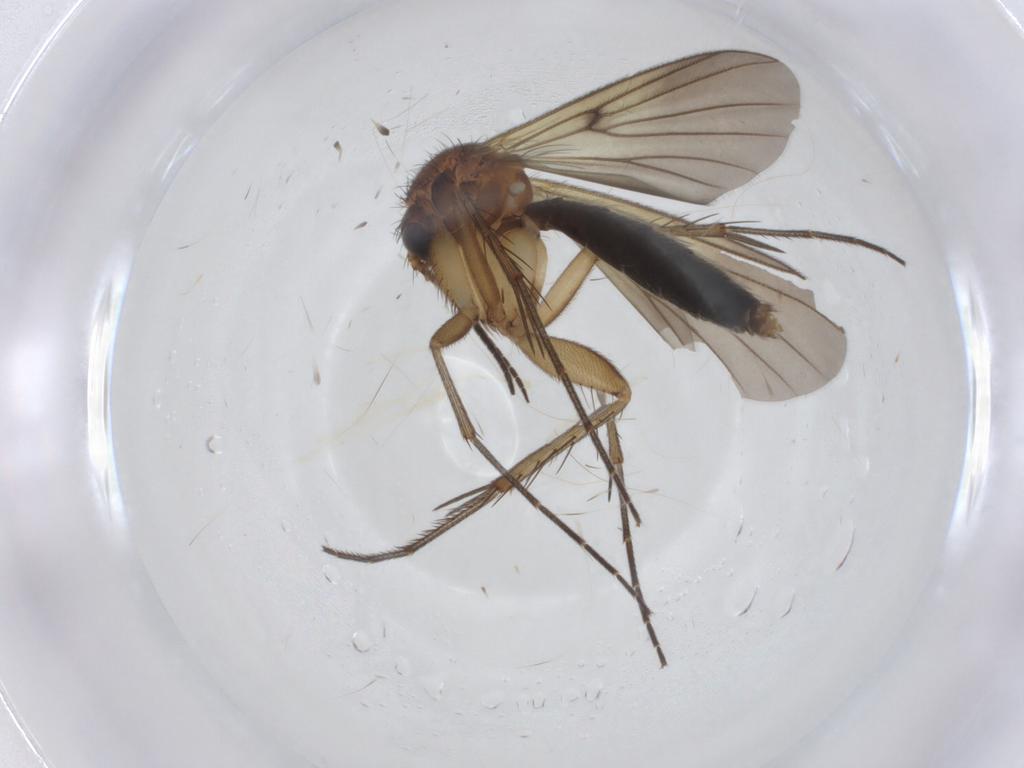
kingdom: Animalia
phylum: Arthropoda
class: Insecta
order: Diptera
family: Mycetophilidae
